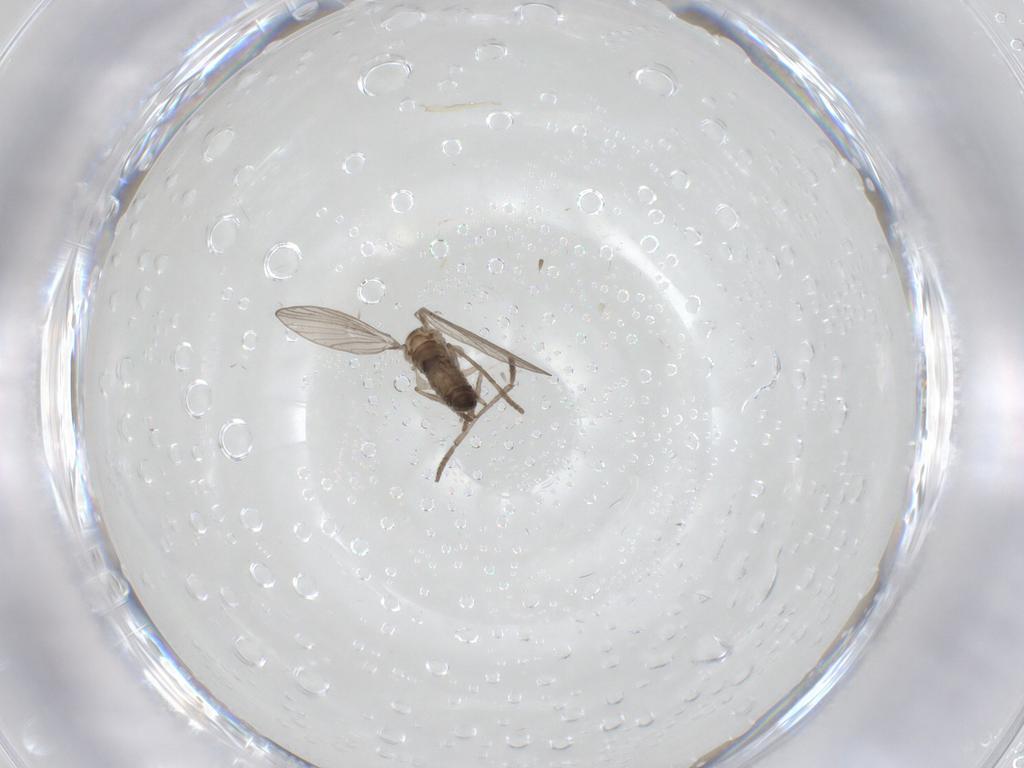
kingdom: Animalia
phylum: Arthropoda
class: Insecta
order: Diptera
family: Psychodidae
